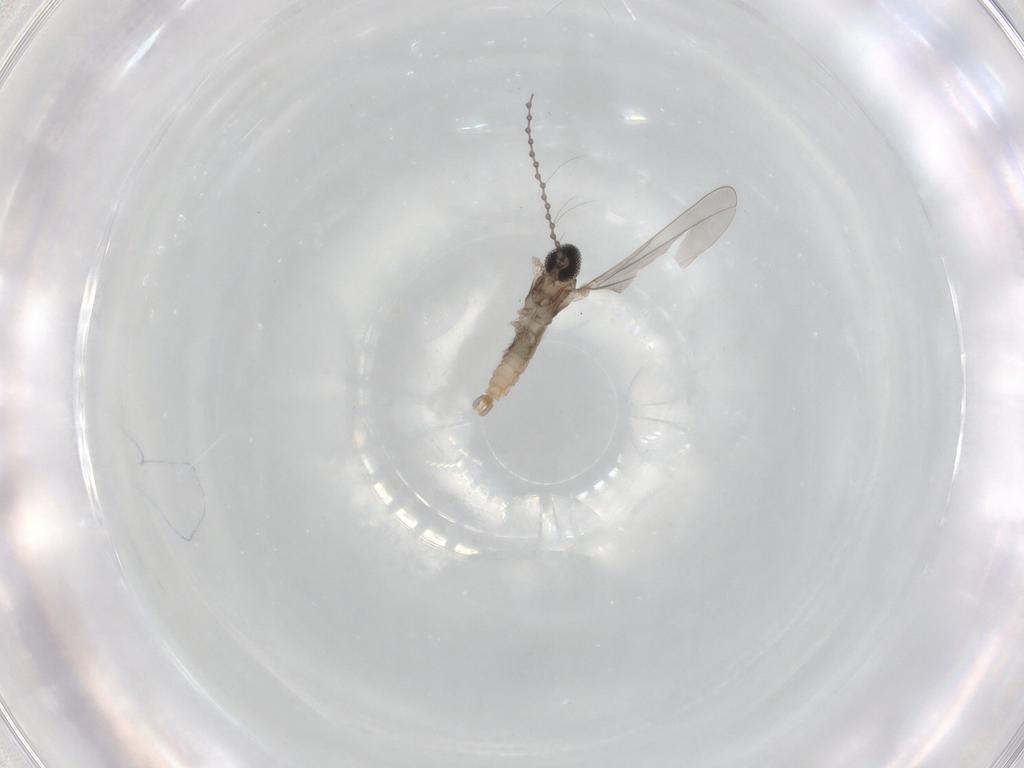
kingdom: Animalia
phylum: Arthropoda
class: Insecta
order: Diptera
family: Cecidomyiidae
